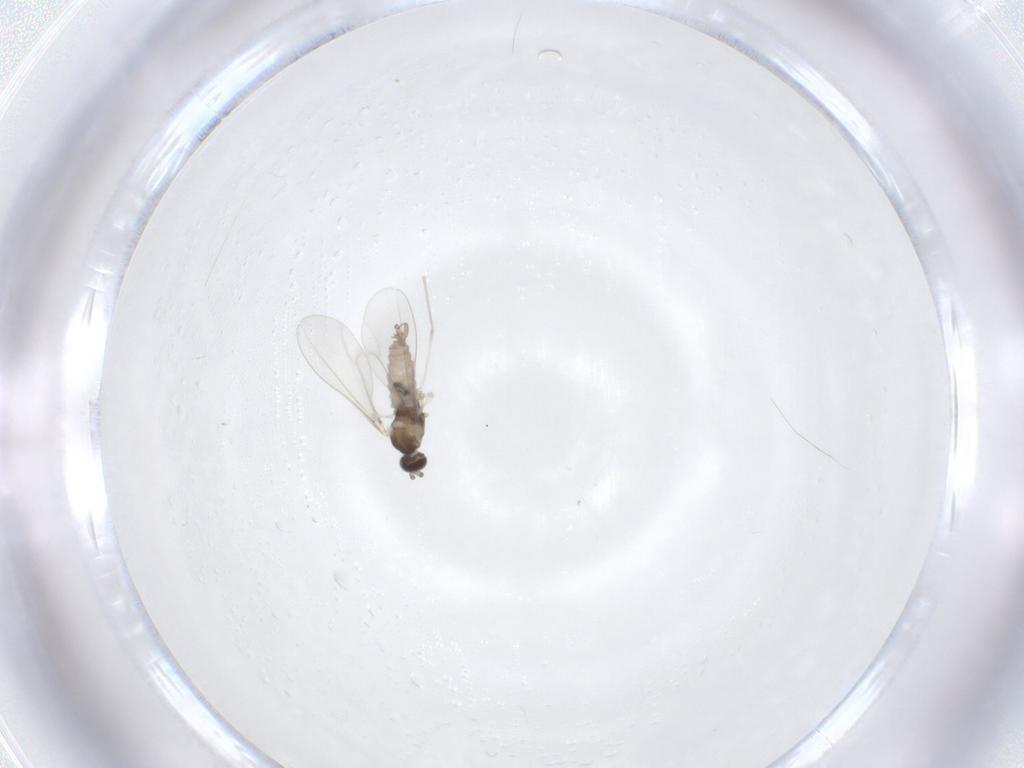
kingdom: Animalia
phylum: Arthropoda
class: Insecta
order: Diptera
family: Cecidomyiidae
